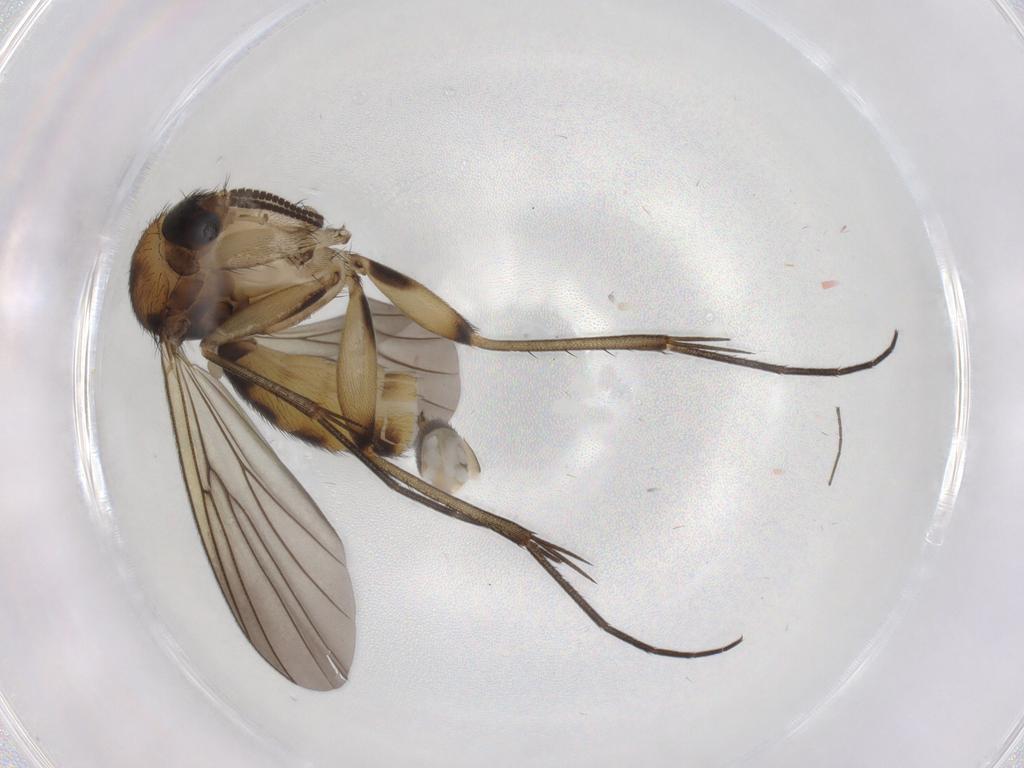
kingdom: Animalia
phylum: Arthropoda
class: Insecta
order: Diptera
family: Mycetophilidae
